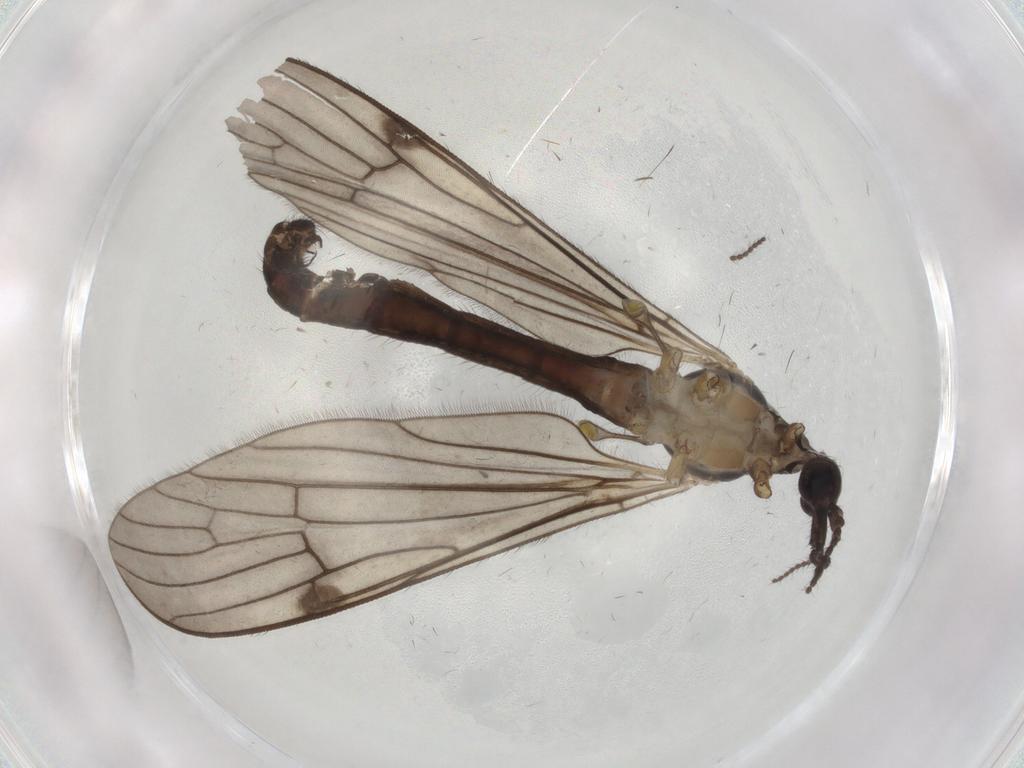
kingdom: Animalia
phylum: Arthropoda
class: Insecta
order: Diptera
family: Limoniidae
